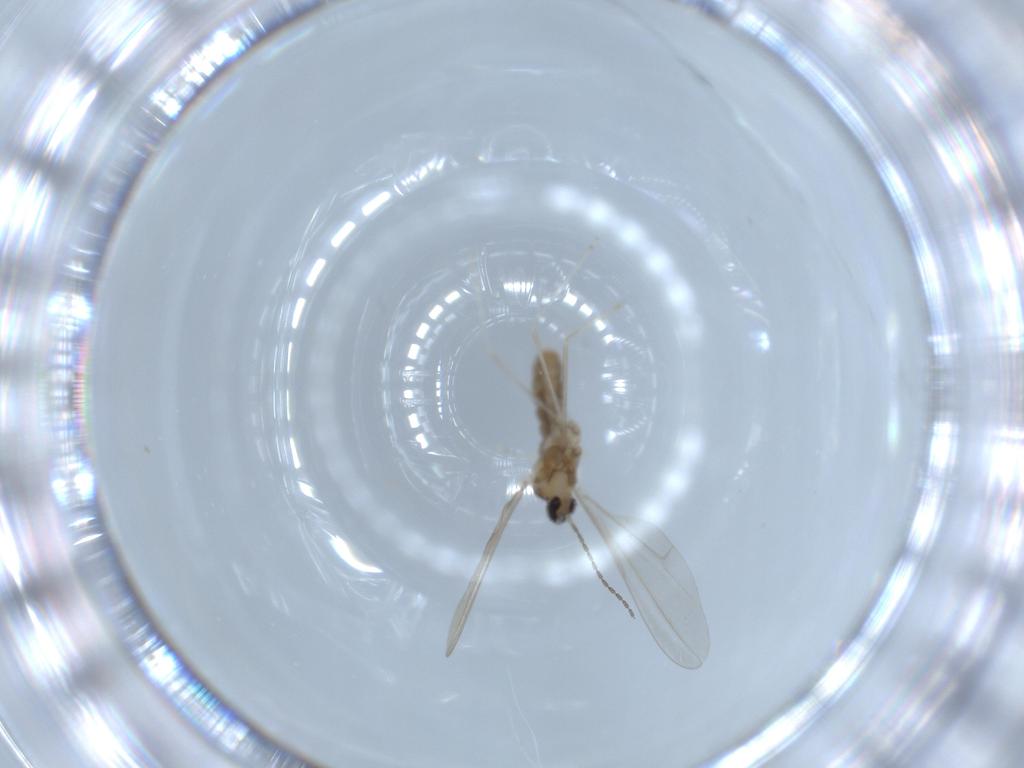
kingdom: Animalia
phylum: Arthropoda
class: Insecta
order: Diptera
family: Cecidomyiidae
